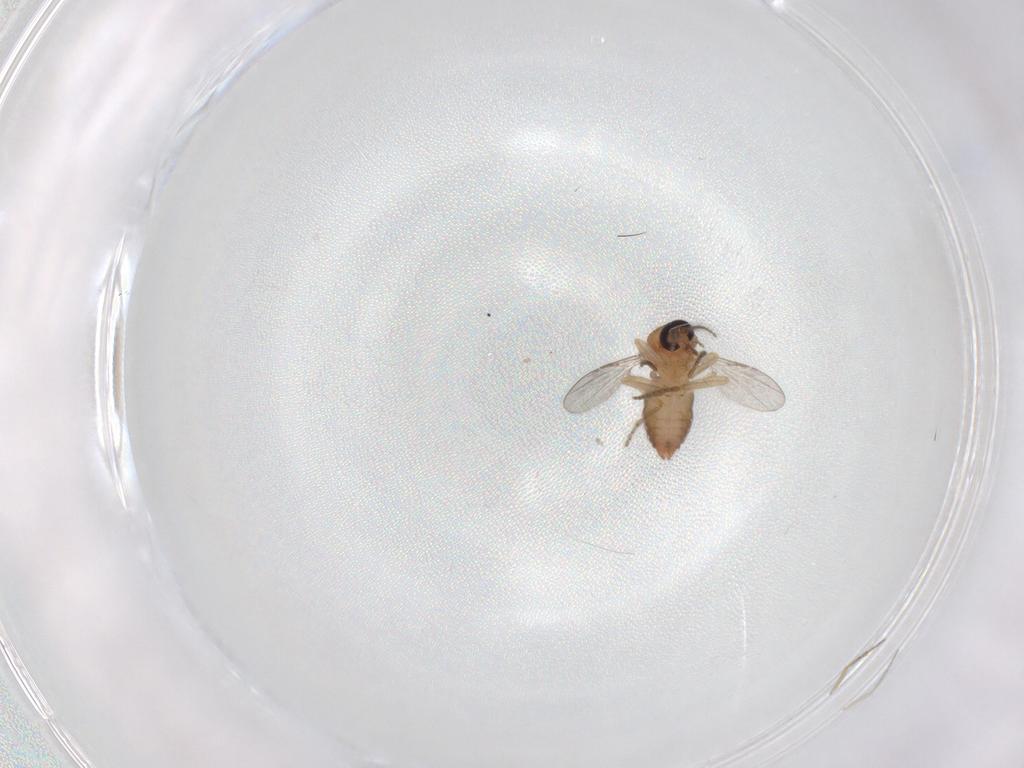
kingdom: Animalia
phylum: Arthropoda
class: Insecta
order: Diptera
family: Ceratopogonidae
